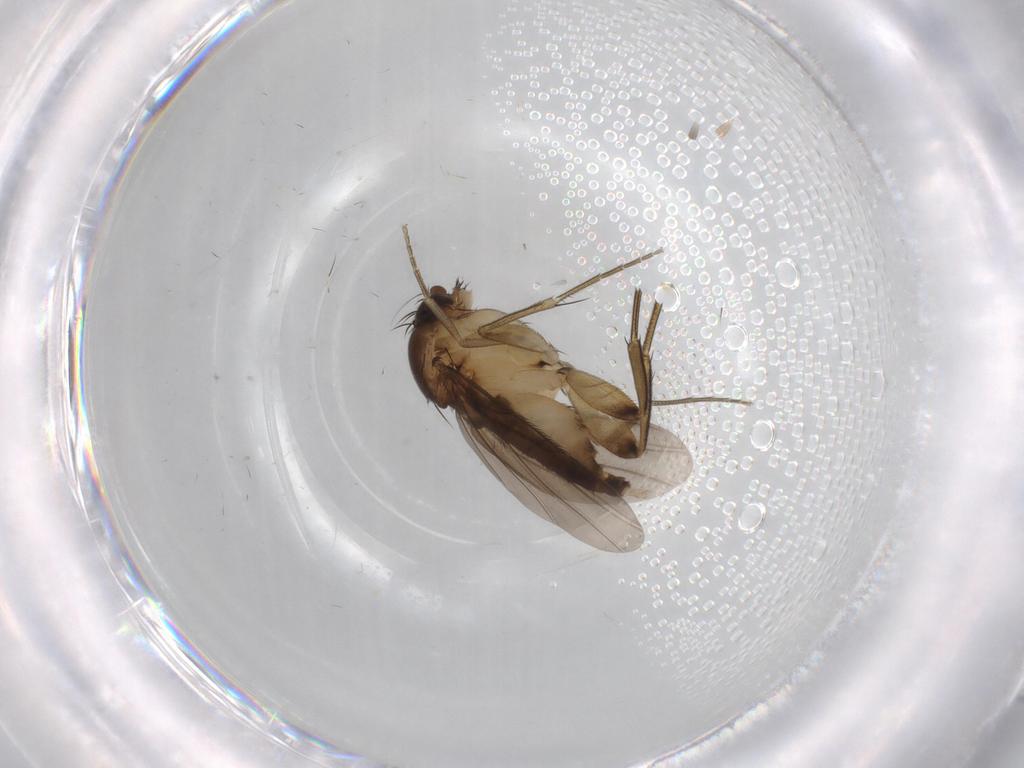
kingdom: Animalia
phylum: Arthropoda
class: Insecta
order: Diptera
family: Phoridae
